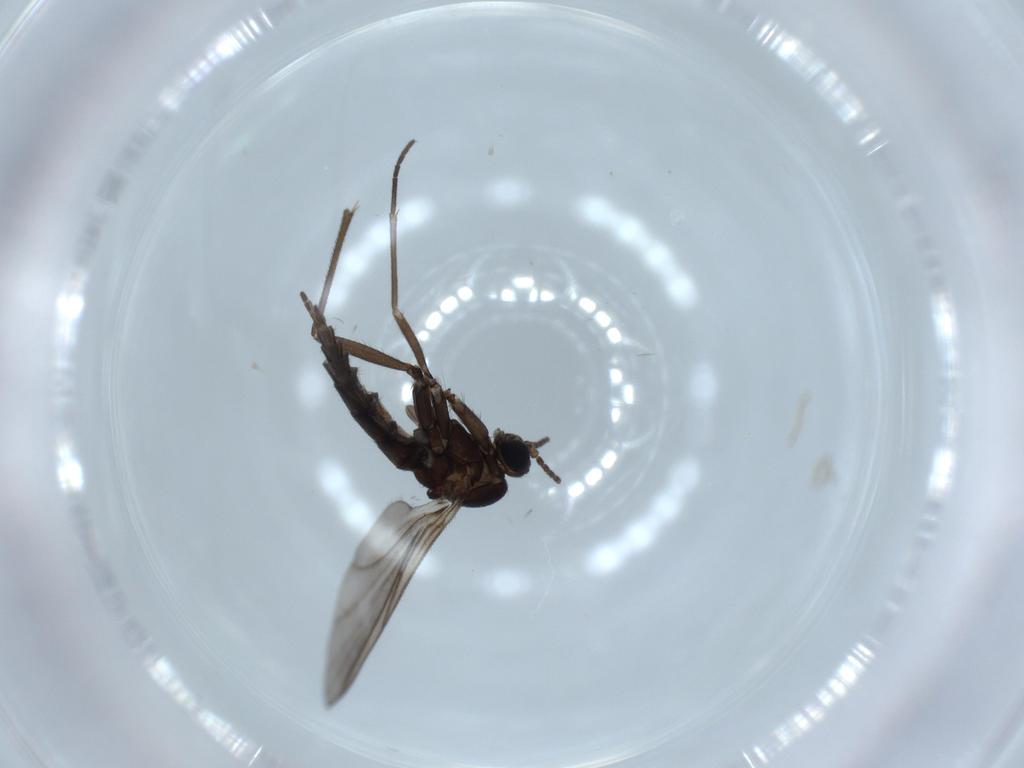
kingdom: Animalia
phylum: Arthropoda
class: Insecta
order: Diptera
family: Sciaridae
